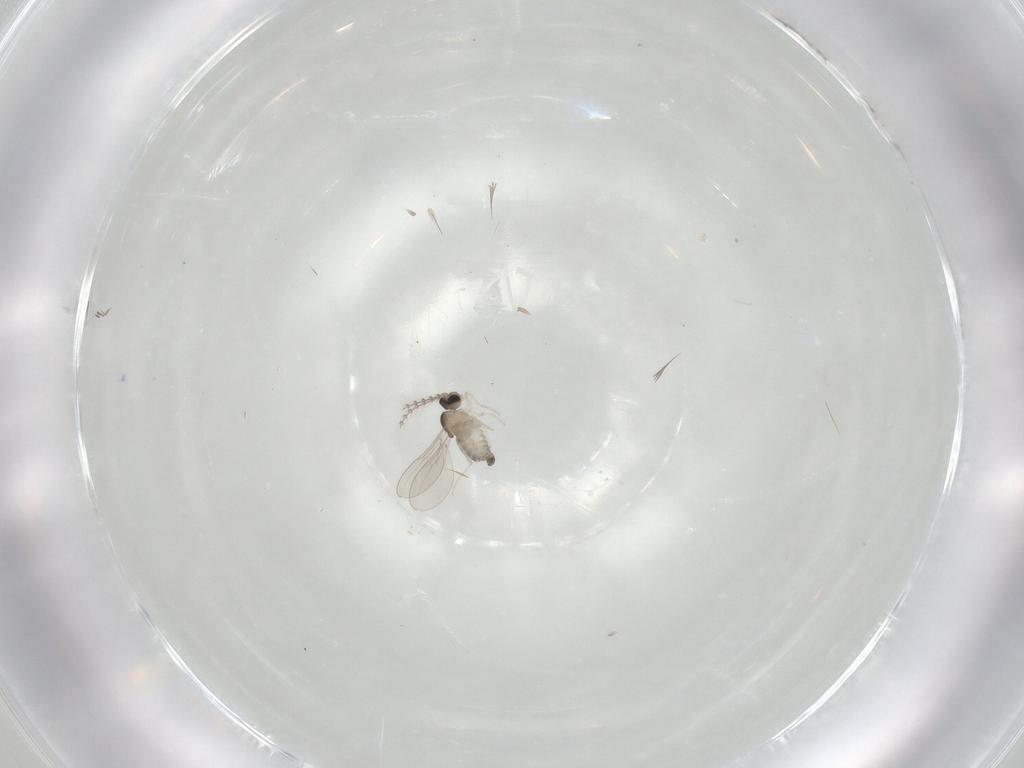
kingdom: Animalia
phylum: Arthropoda
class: Insecta
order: Diptera
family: Cecidomyiidae
